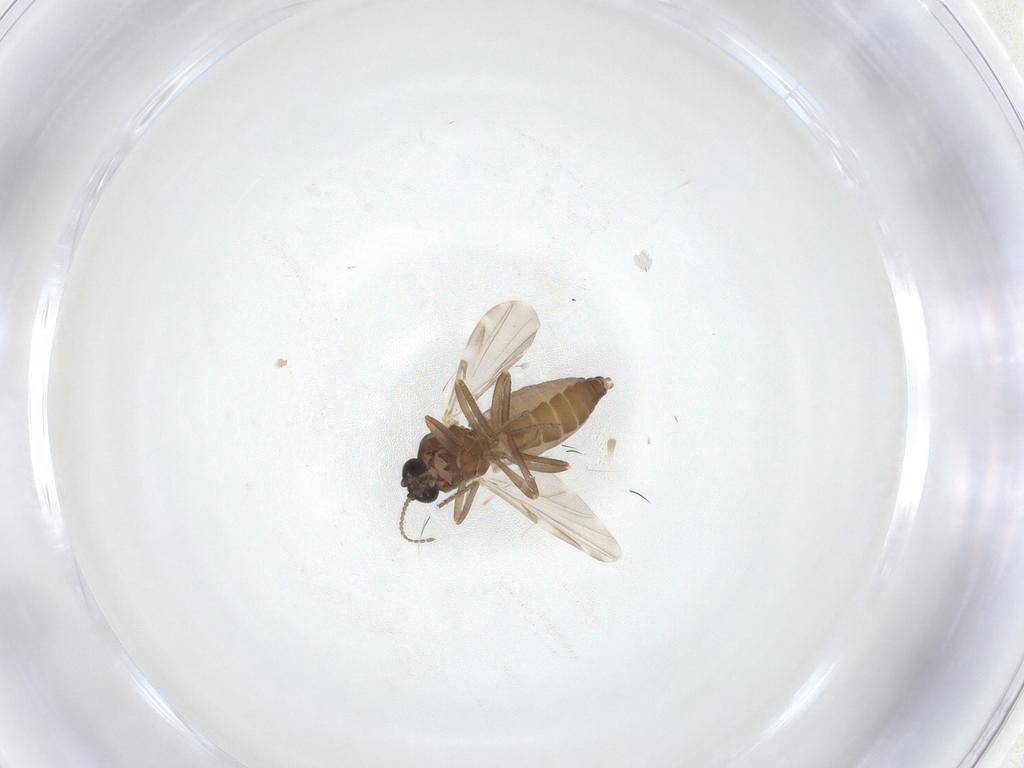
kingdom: Animalia
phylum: Arthropoda
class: Insecta
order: Diptera
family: Ceratopogonidae
